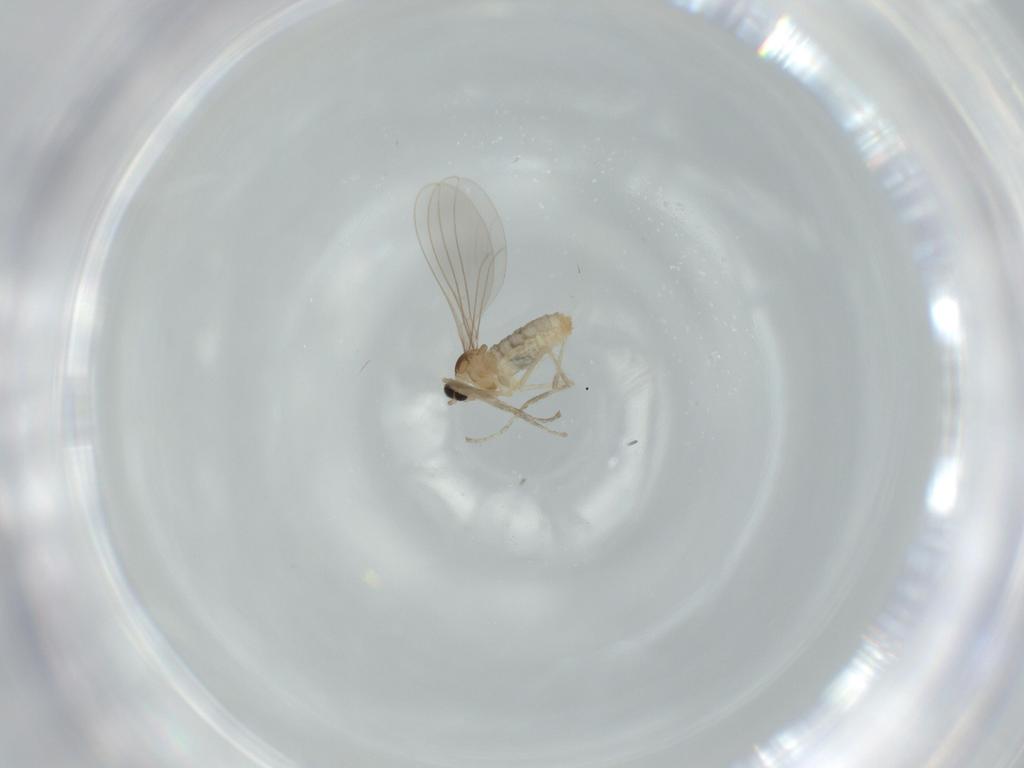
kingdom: Animalia
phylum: Arthropoda
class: Insecta
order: Diptera
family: Cecidomyiidae
